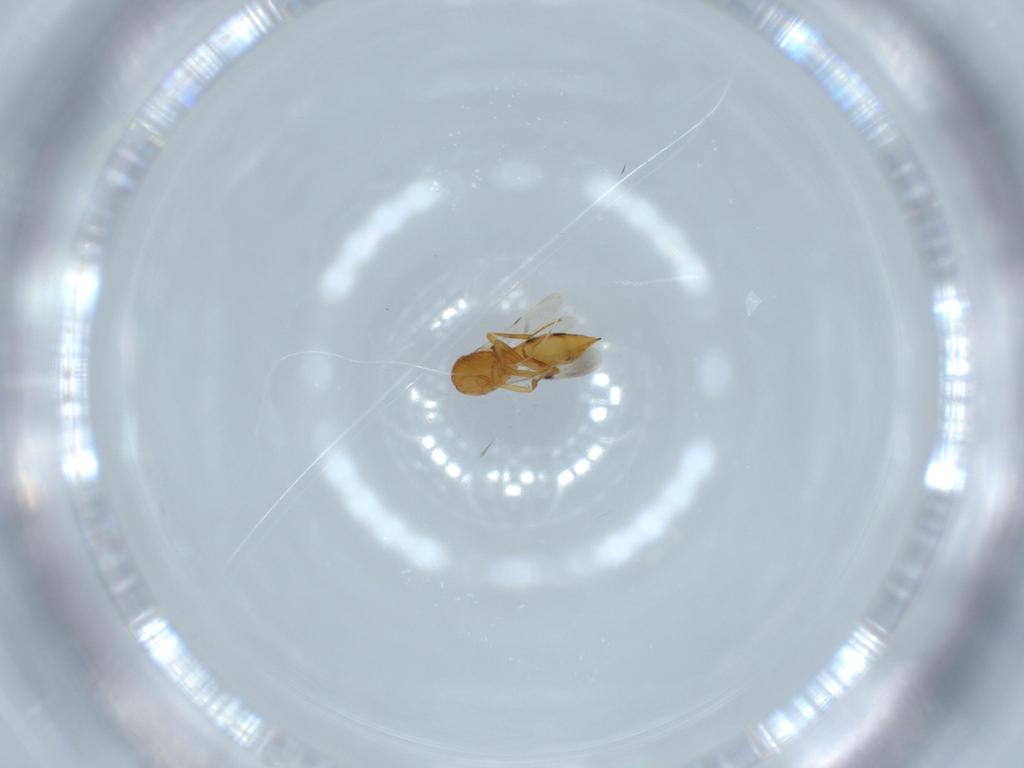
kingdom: Animalia
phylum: Arthropoda
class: Insecta
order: Hymenoptera
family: Scelionidae
